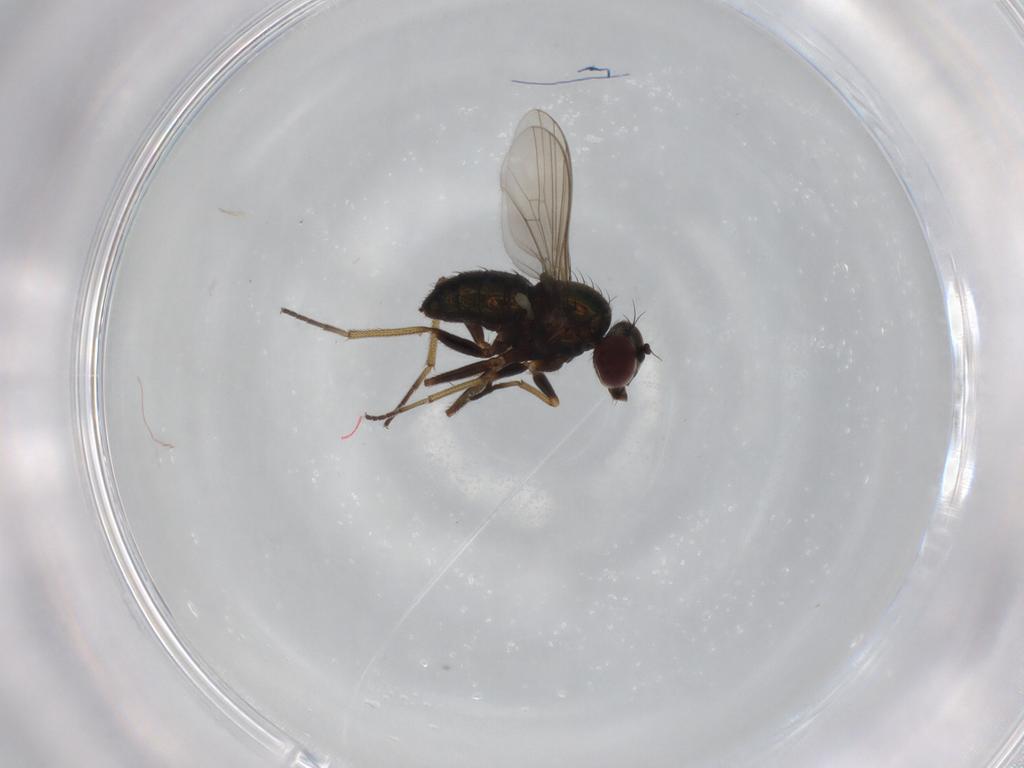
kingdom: Animalia
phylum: Arthropoda
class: Insecta
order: Diptera
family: Dolichopodidae
